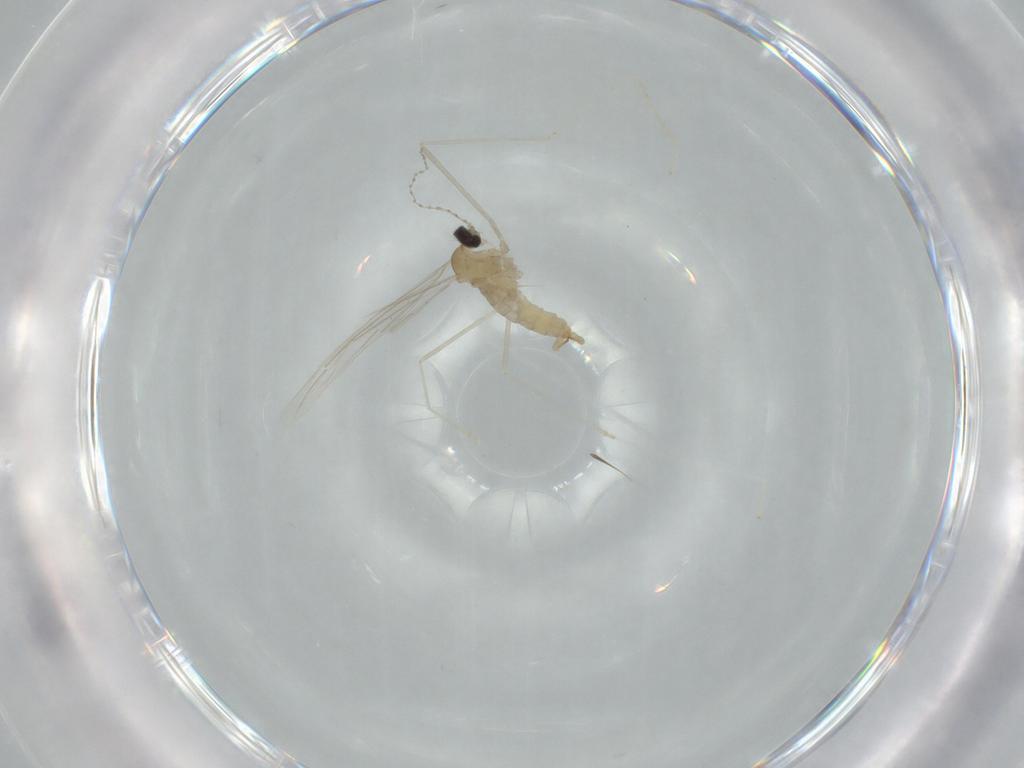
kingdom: Animalia
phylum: Arthropoda
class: Insecta
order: Diptera
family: Cecidomyiidae
